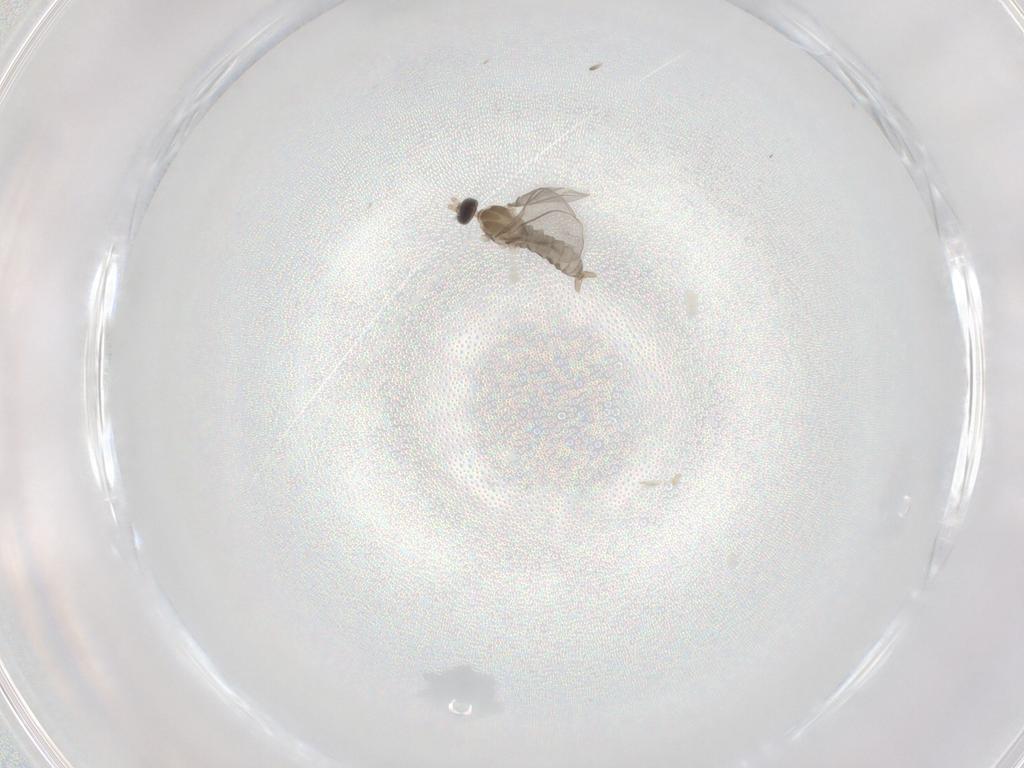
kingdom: Animalia
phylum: Arthropoda
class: Insecta
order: Diptera
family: Cecidomyiidae
